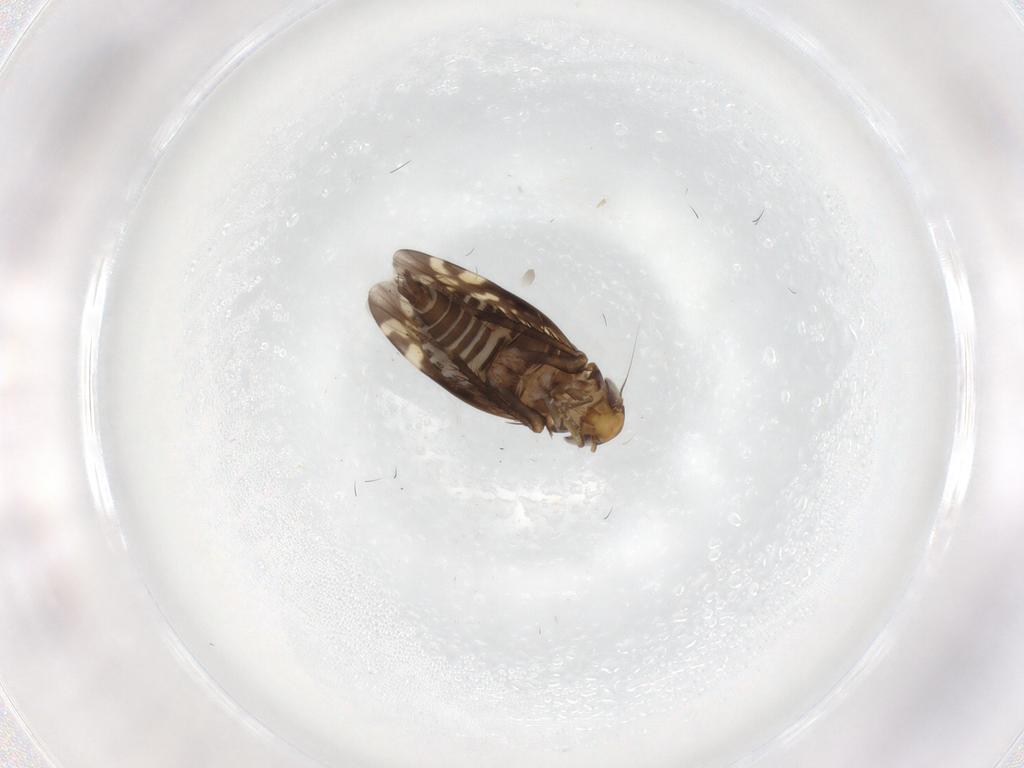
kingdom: Animalia
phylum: Arthropoda
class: Insecta
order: Hemiptera
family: Cicadellidae
